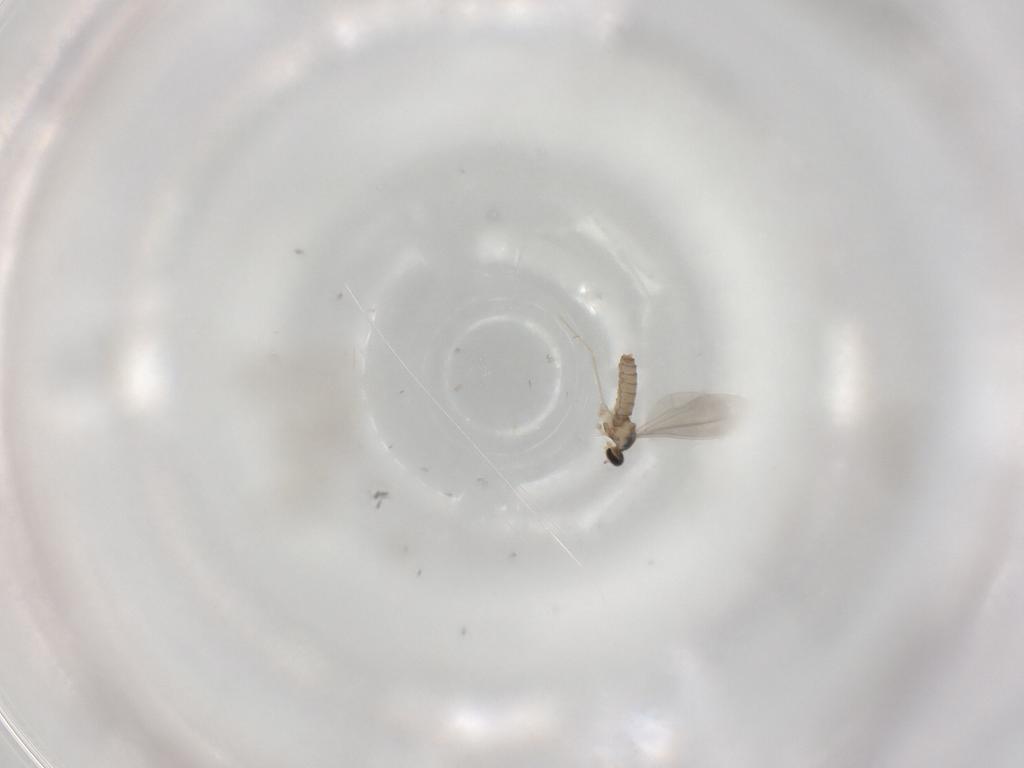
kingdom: Animalia
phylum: Arthropoda
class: Insecta
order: Diptera
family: Cecidomyiidae
